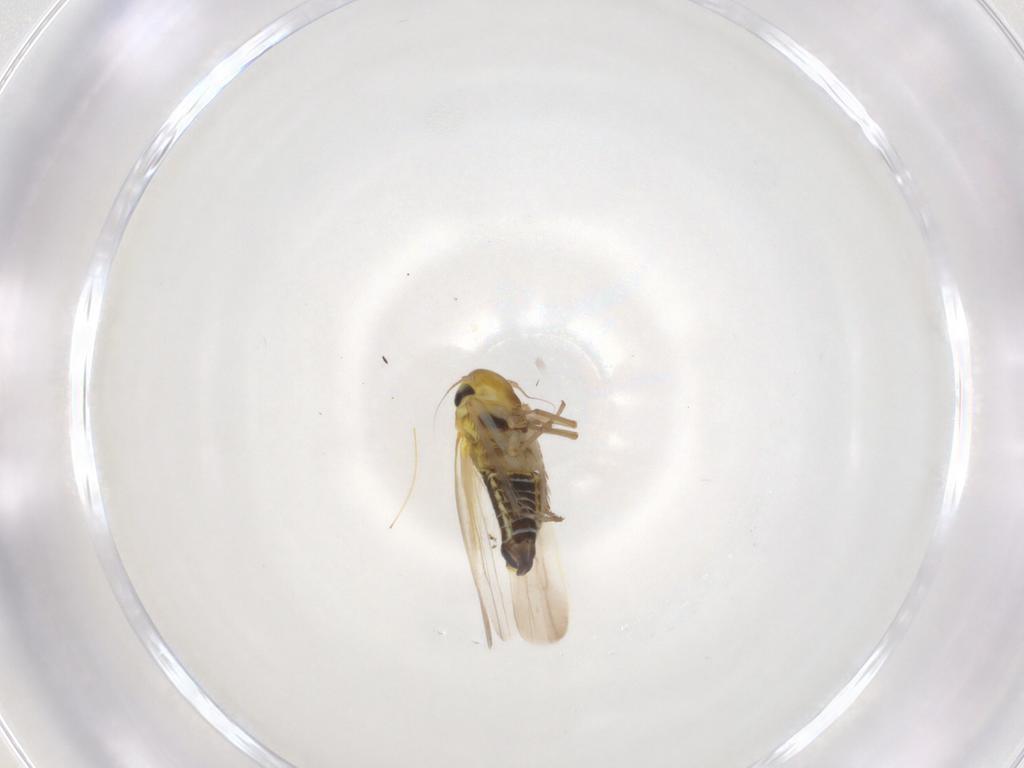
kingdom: Animalia
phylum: Arthropoda
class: Insecta
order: Hemiptera
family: Cicadellidae
